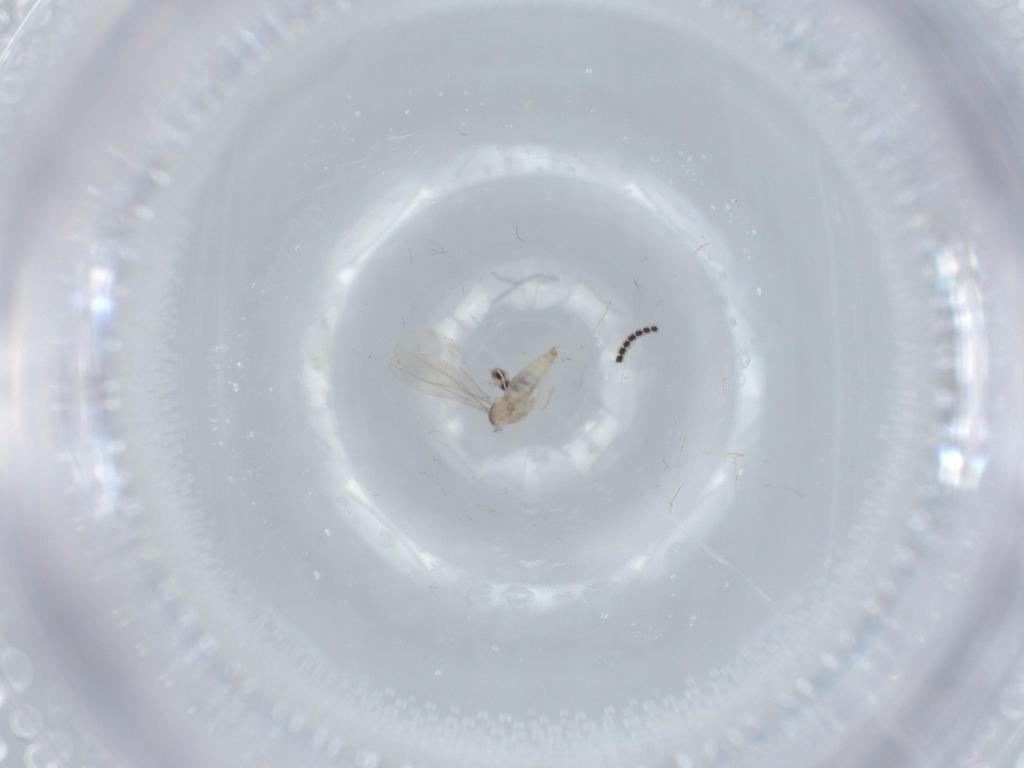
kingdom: Animalia
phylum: Arthropoda
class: Insecta
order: Diptera
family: Cecidomyiidae
